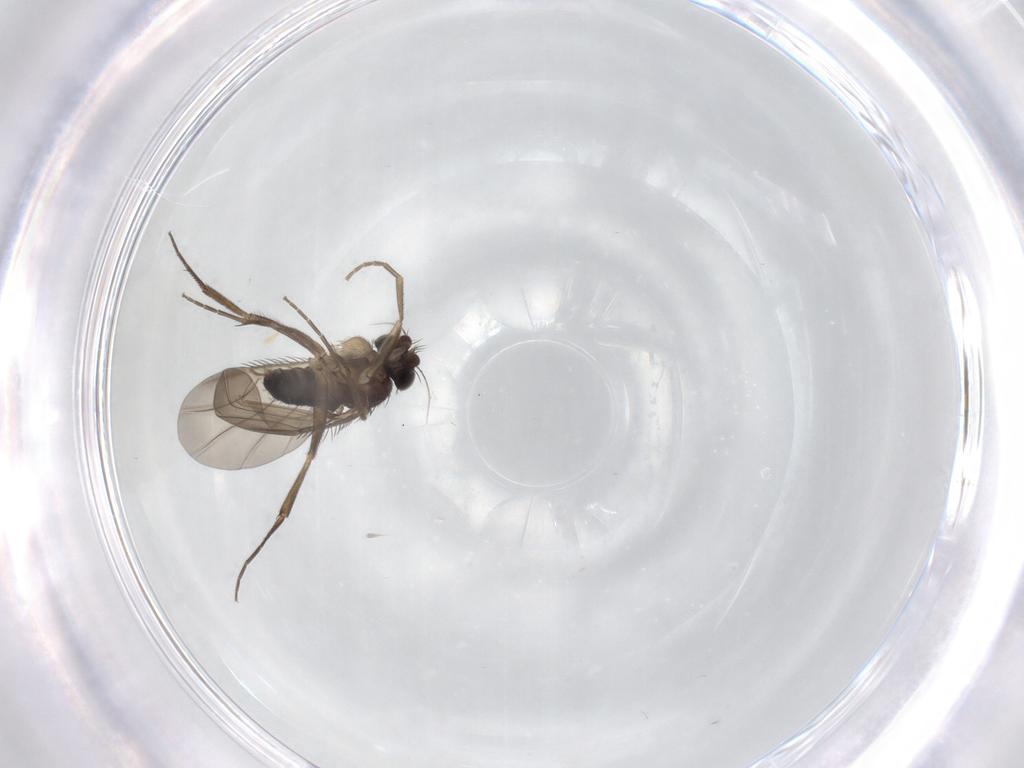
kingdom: Animalia
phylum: Arthropoda
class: Insecta
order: Diptera
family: Phoridae
